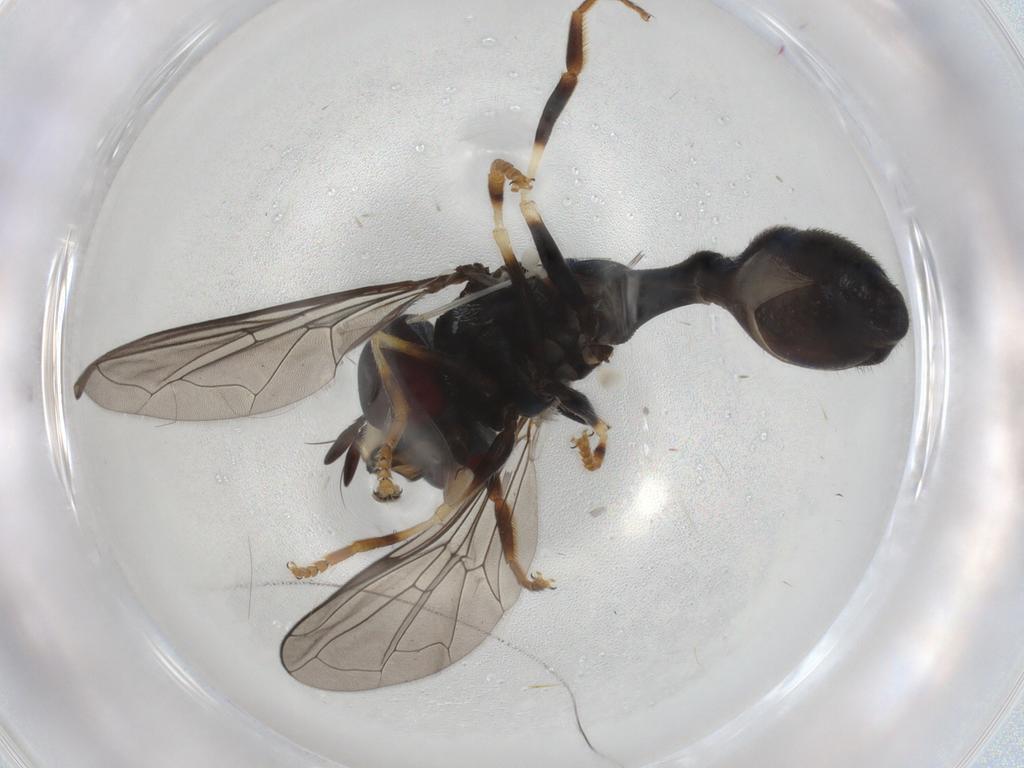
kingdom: Animalia
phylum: Arthropoda
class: Insecta
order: Diptera
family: Syrphidae
